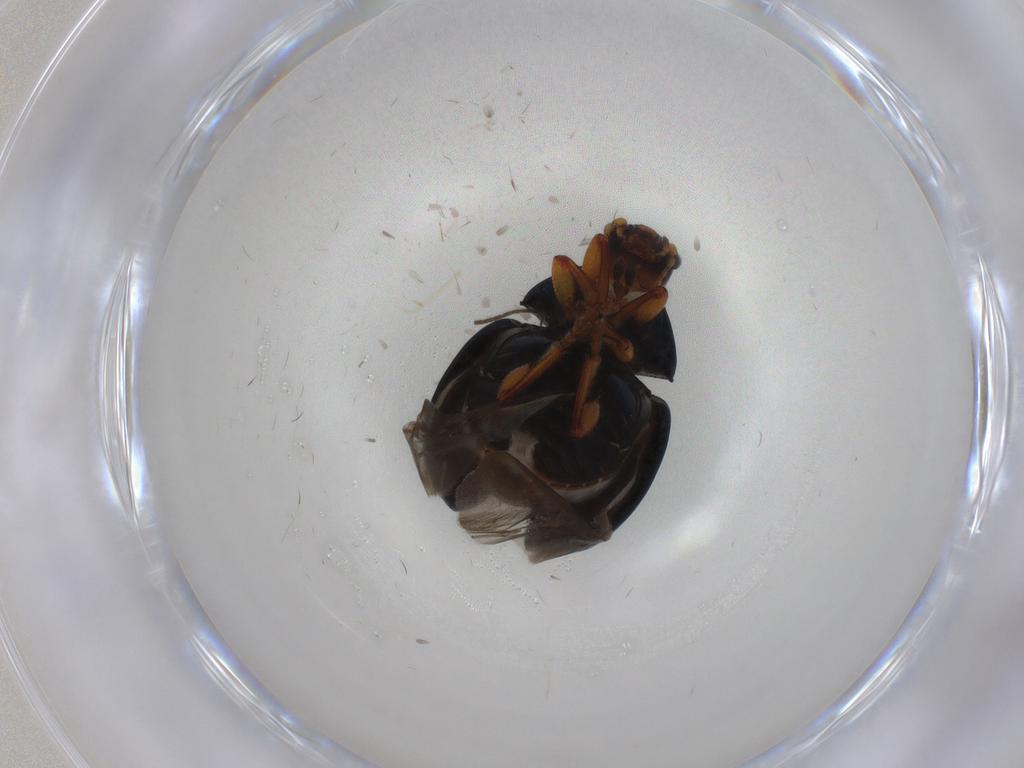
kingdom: Animalia
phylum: Arthropoda
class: Insecta
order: Coleoptera
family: Chrysomelidae
